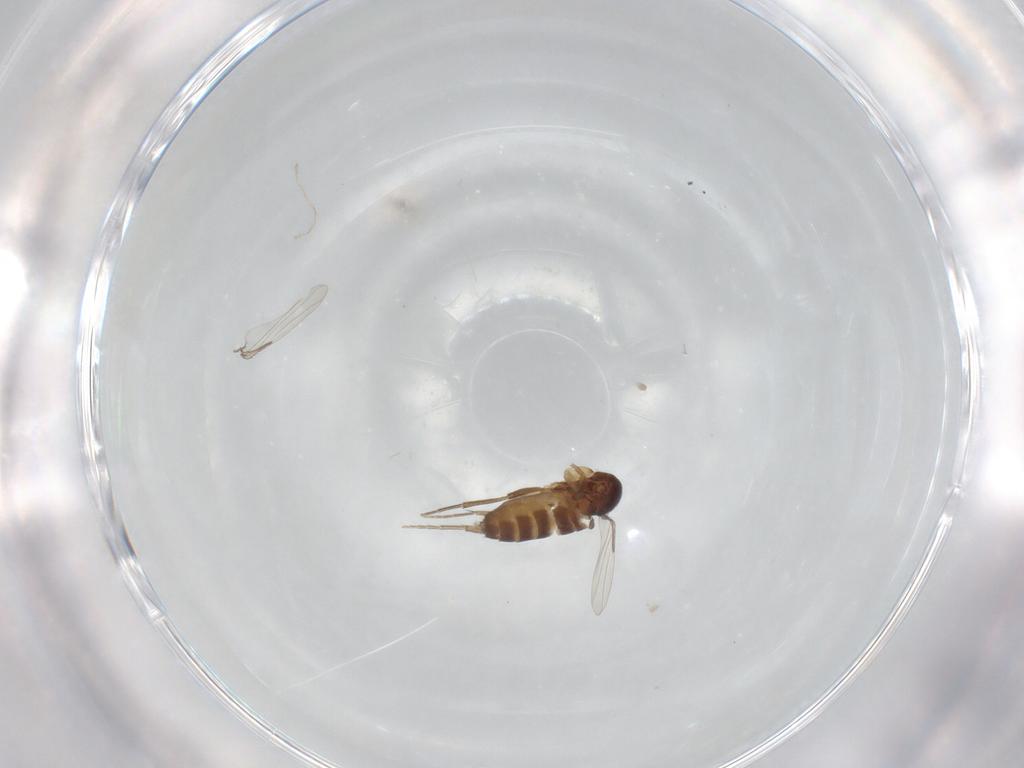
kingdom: Animalia
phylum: Arthropoda
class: Insecta
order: Diptera
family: Phoridae
